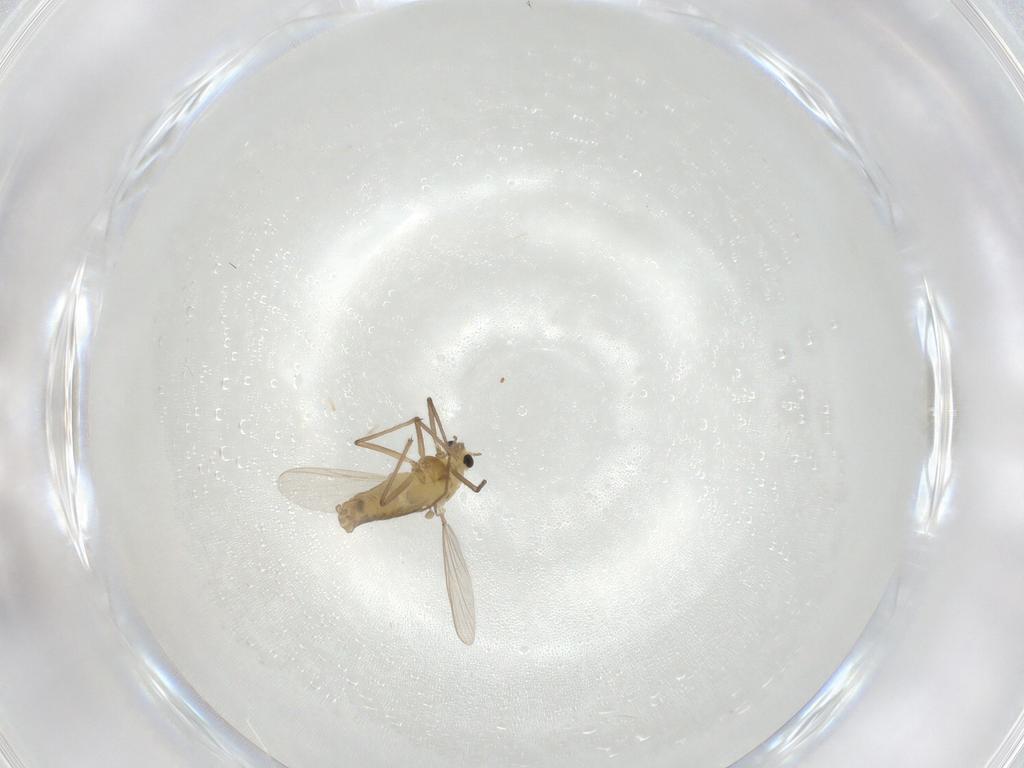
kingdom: Animalia
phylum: Arthropoda
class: Insecta
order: Diptera
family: Chironomidae
